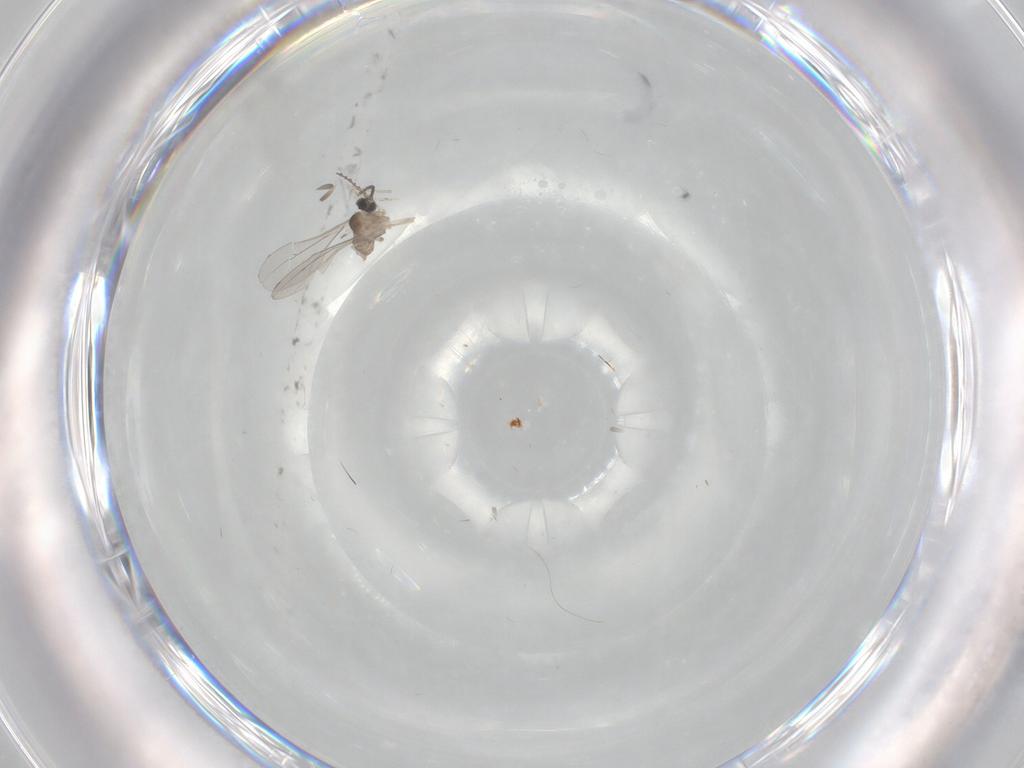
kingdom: Animalia
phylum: Arthropoda
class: Insecta
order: Diptera
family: Cecidomyiidae
